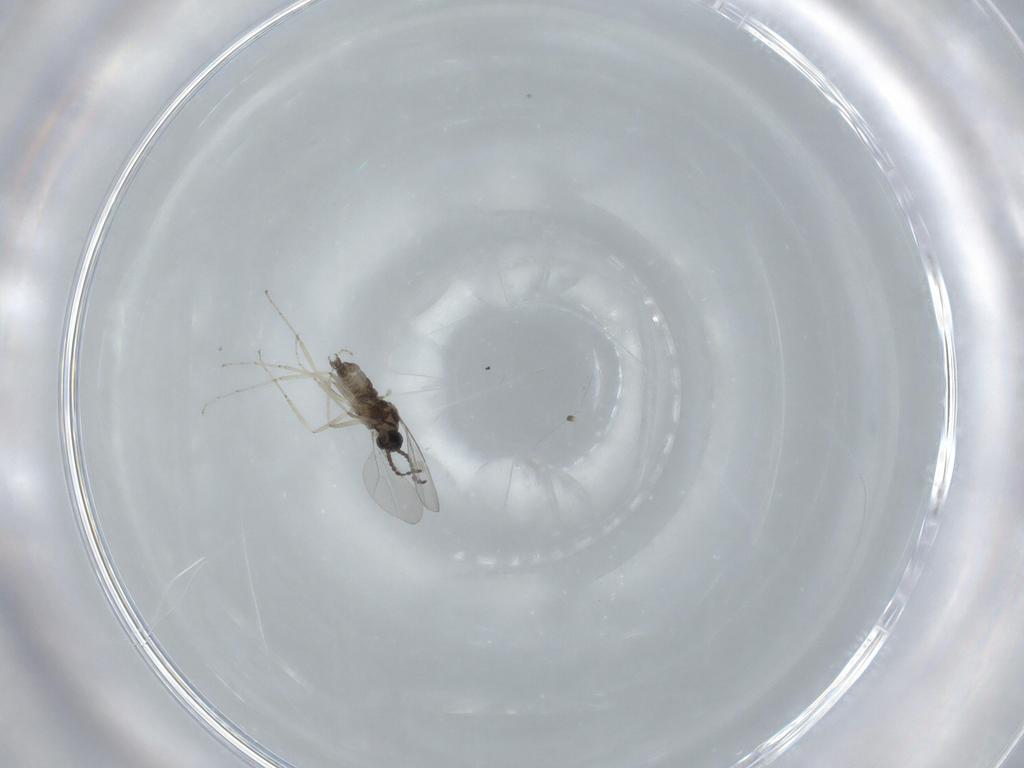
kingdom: Animalia
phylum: Arthropoda
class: Insecta
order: Diptera
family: Cecidomyiidae
